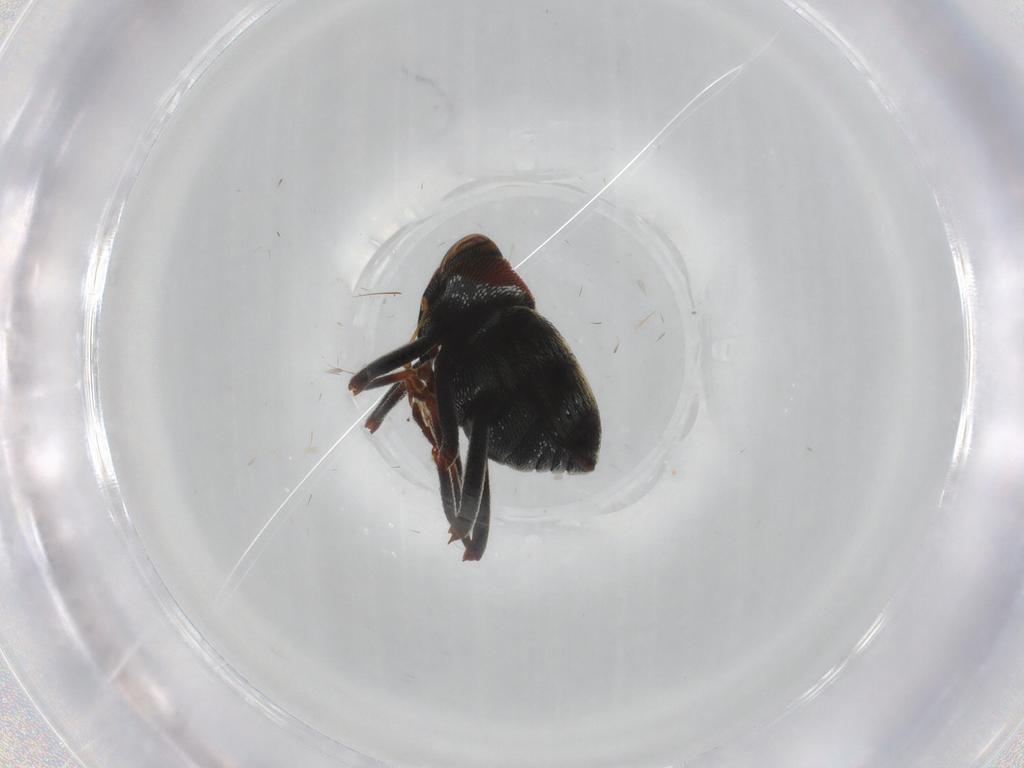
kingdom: Animalia
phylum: Arthropoda
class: Insecta
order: Coleoptera
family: Curculionidae
